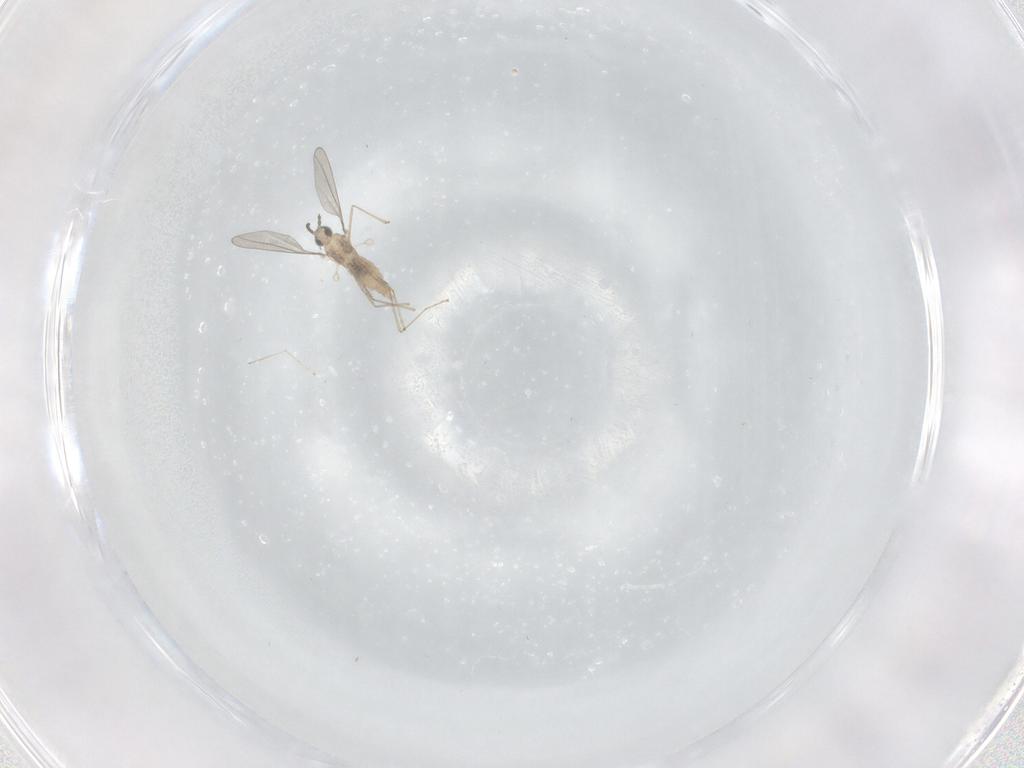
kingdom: Animalia
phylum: Arthropoda
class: Insecta
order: Diptera
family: Cecidomyiidae
